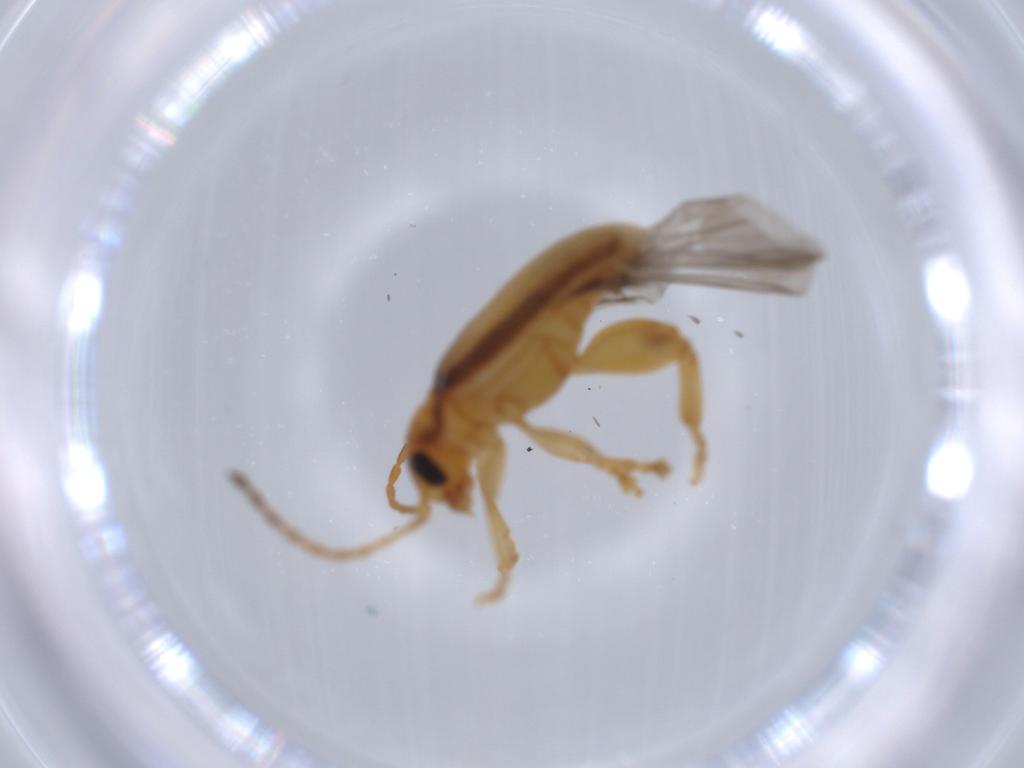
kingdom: Animalia
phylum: Arthropoda
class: Insecta
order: Coleoptera
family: Chrysomelidae
